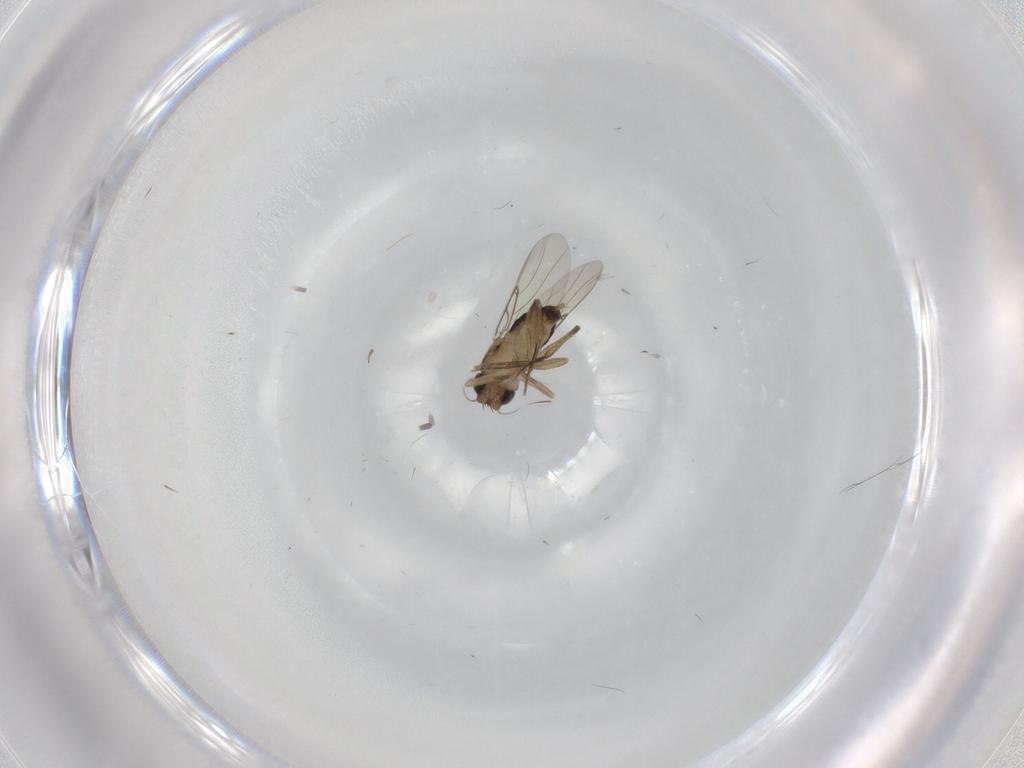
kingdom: Animalia
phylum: Arthropoda
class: Insecta
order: Diptera
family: Phoridae
